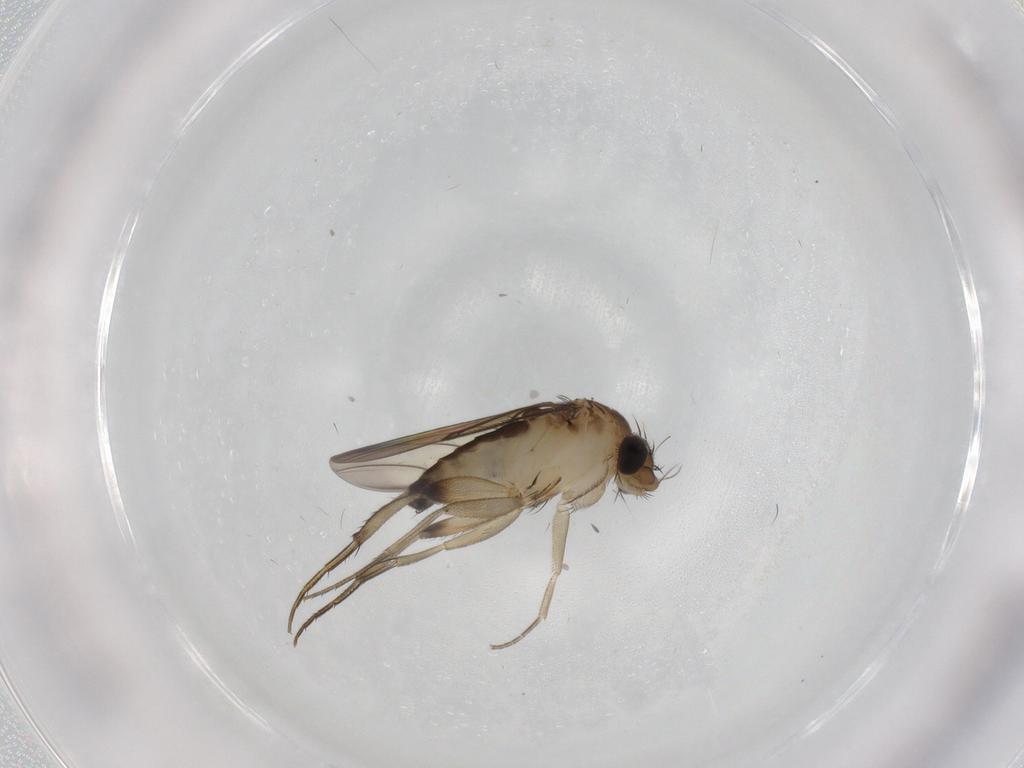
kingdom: Animalia
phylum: Arthropoda
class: Insecta
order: Diptera
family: Phoridae
